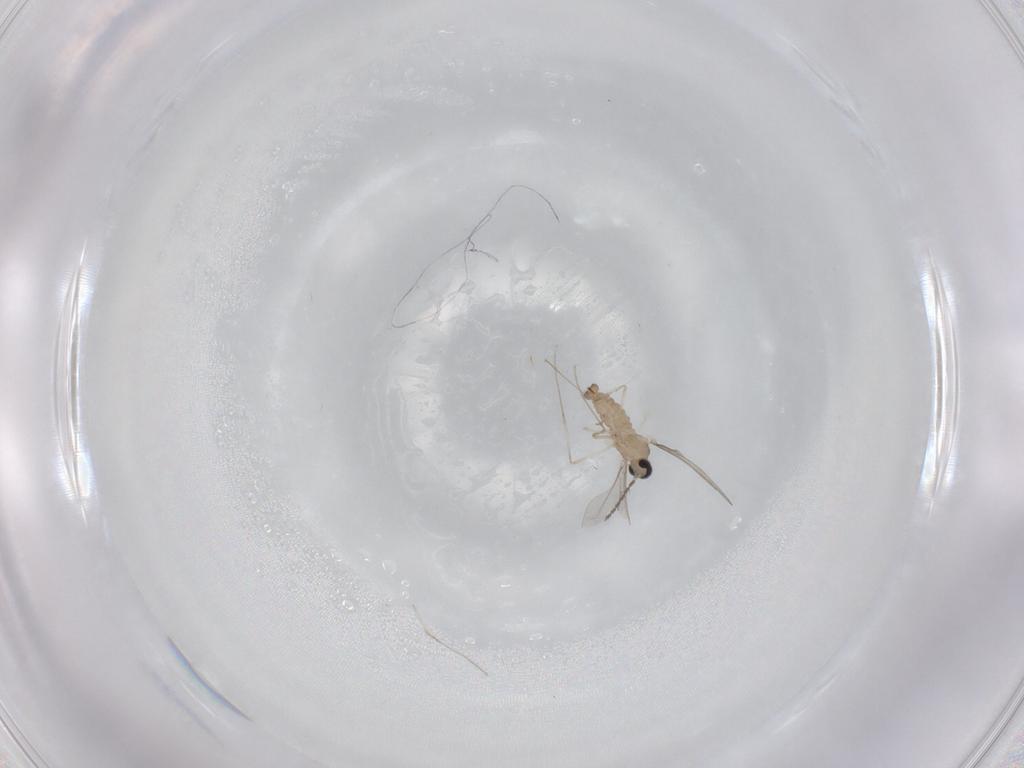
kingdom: Animalia
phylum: Arthropoda
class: Insecta
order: Diptera
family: Cecidomyiidae
